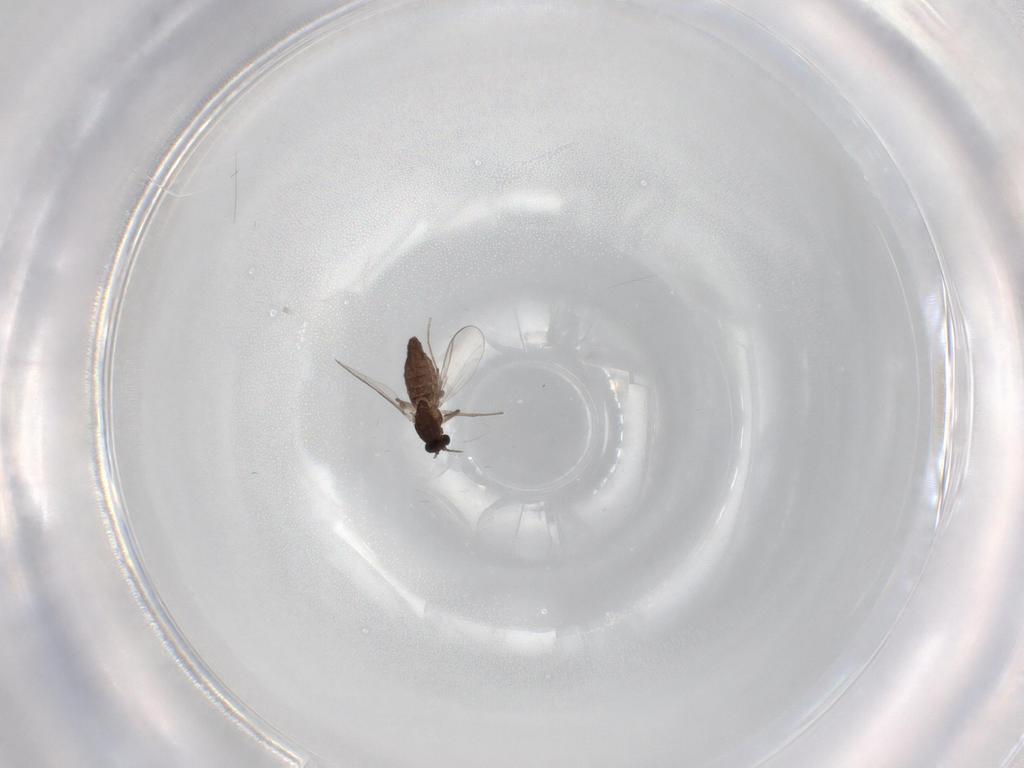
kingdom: Animalia
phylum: Arthropoda
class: Insecta
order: Diptera
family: Chironomidae
